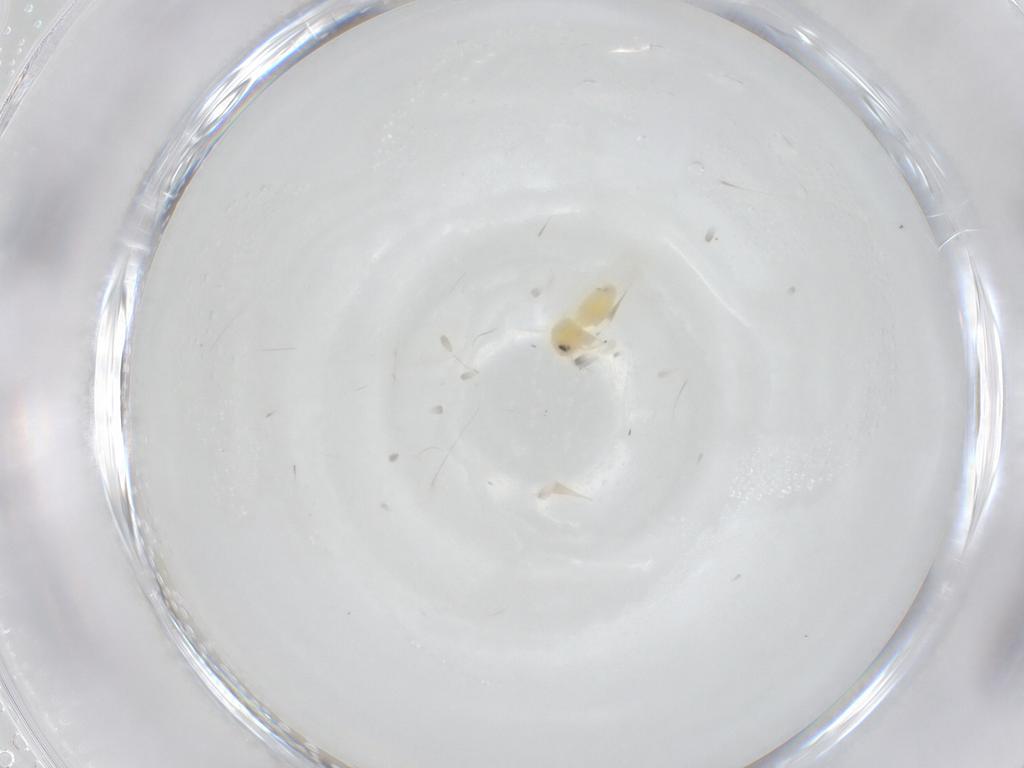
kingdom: Animalia
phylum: Arthropoda
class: Insecta
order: Hemiptera
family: Aleyrodidae
